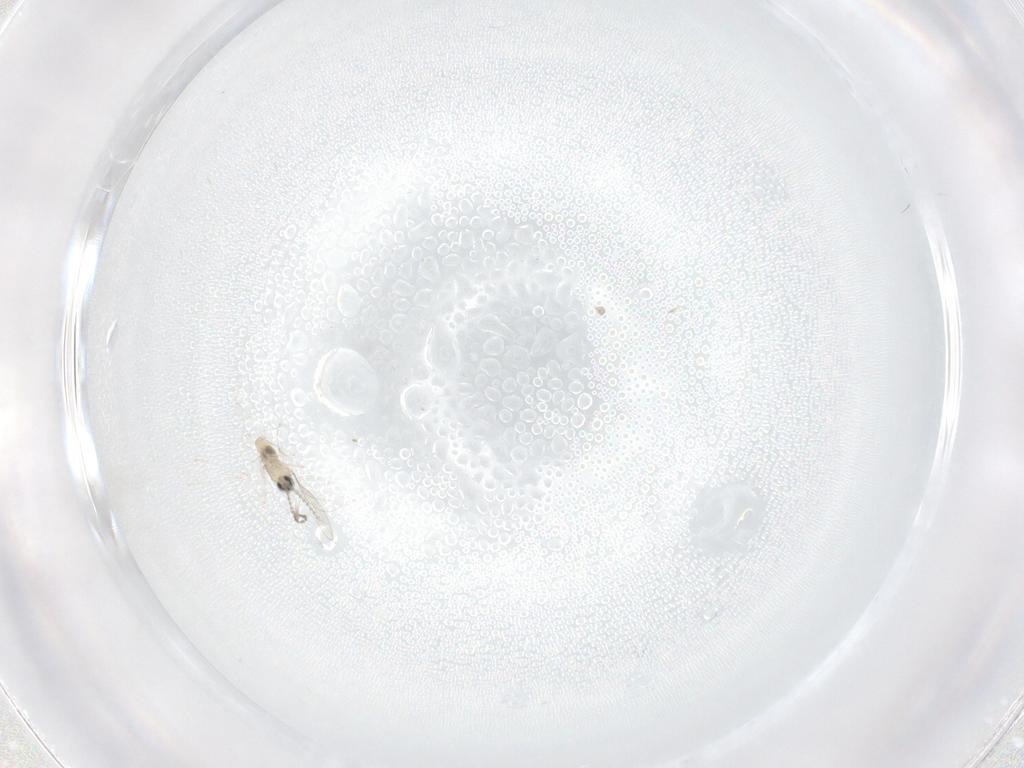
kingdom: Animalia
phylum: Arthropoda
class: Insecta
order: Diptera
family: Cecidomyiidae
